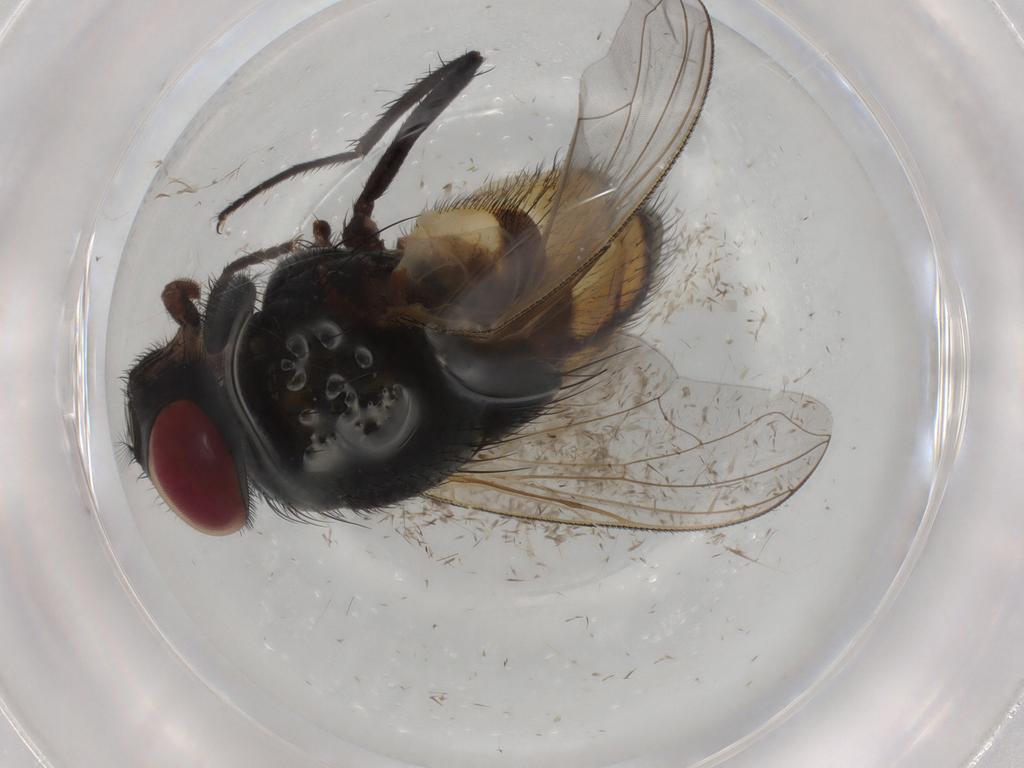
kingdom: Animalia
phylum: Arthropoda
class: Insecta
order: Diptera
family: Muscidae
